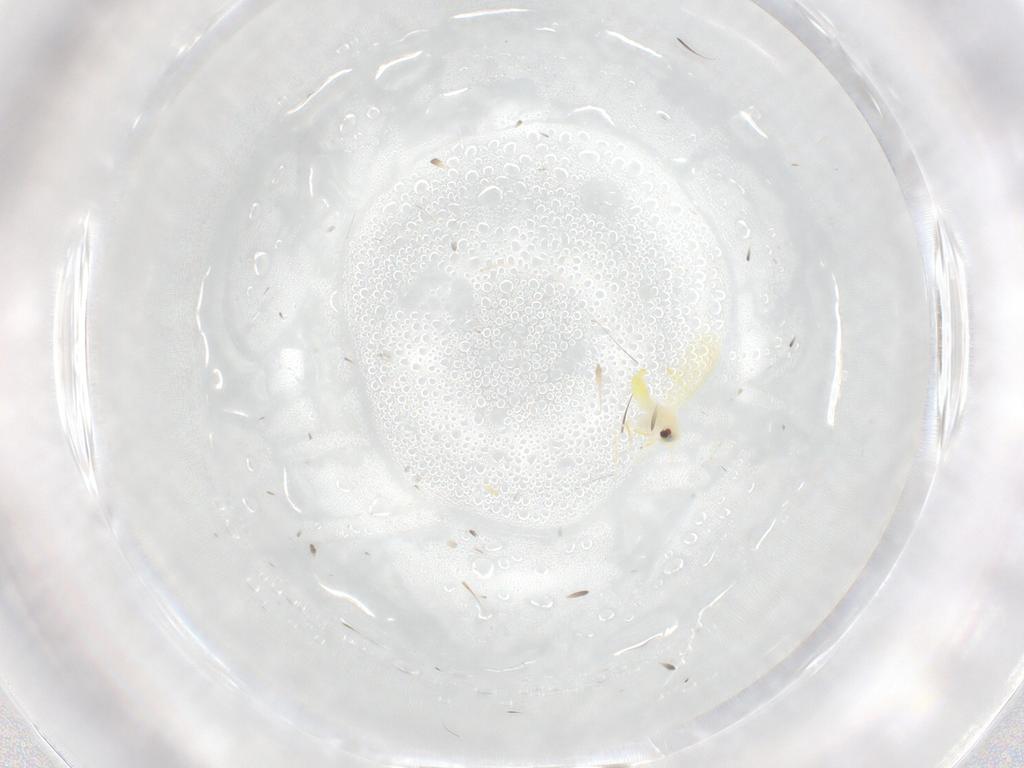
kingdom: Animalia
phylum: Arthropoda
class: Insecta
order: Hemiptera
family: Cicadellidae
